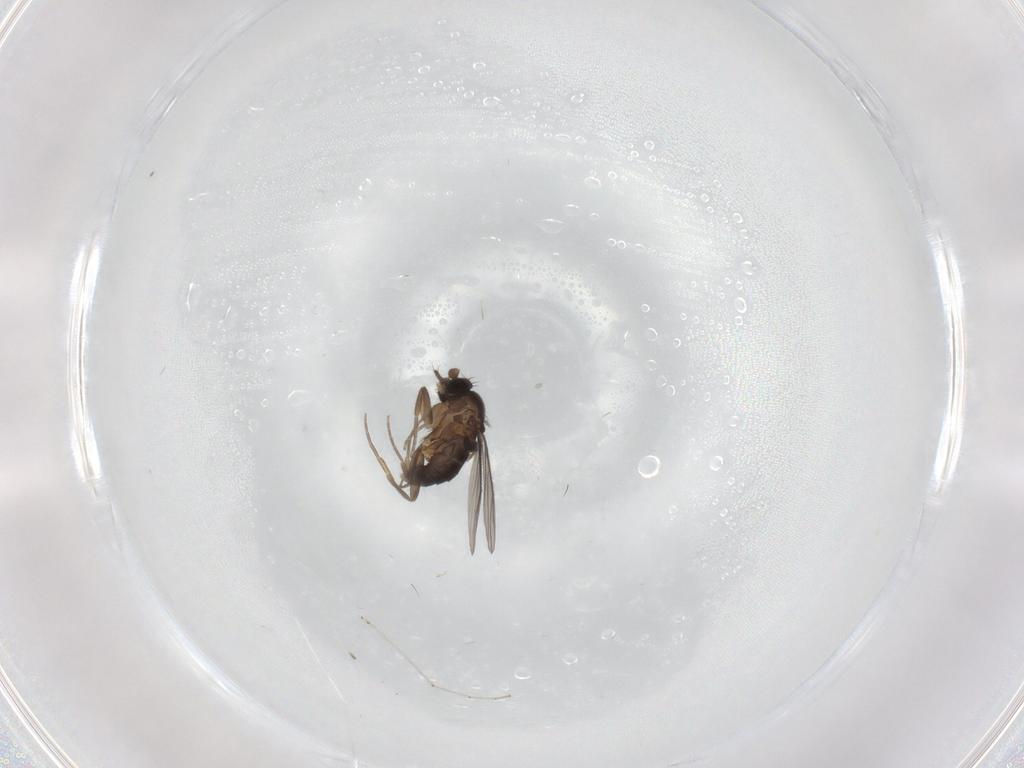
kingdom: Animalia
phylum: Arthropoda
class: Insecta
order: Diptera
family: Phoridae
